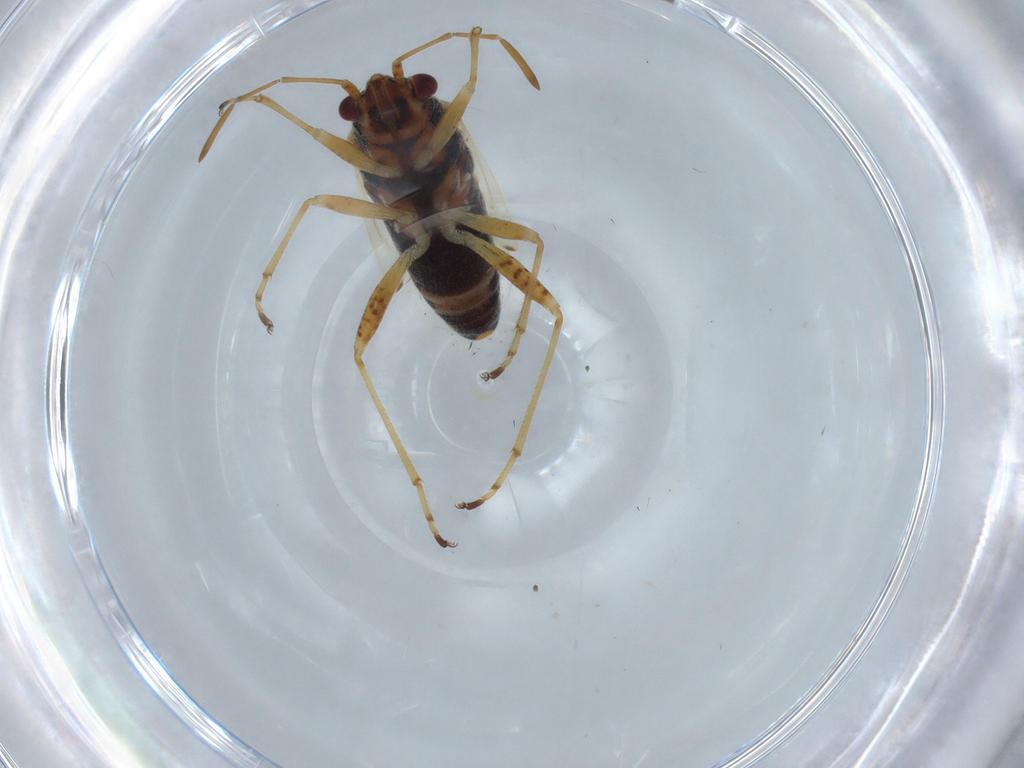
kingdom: Animalia
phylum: Arthropoda
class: Insecta
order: Hemiptera
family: Lygaeidae
